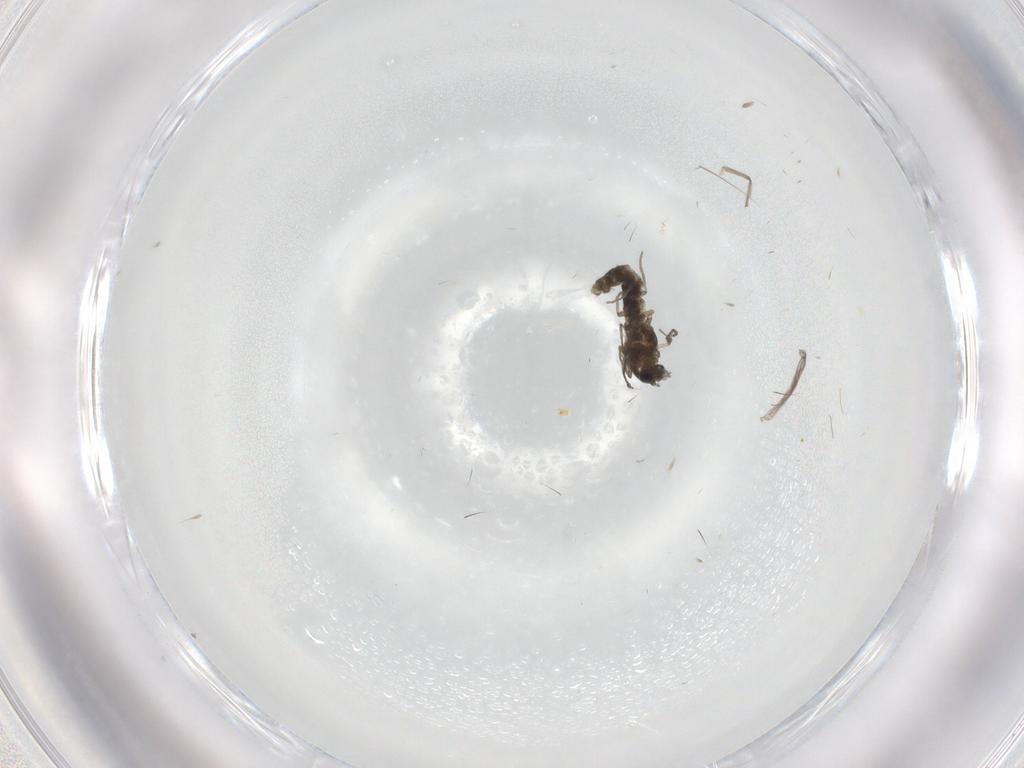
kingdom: Animalia
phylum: Arthropoda
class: Insecta
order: Diptera
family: Chironomidae
